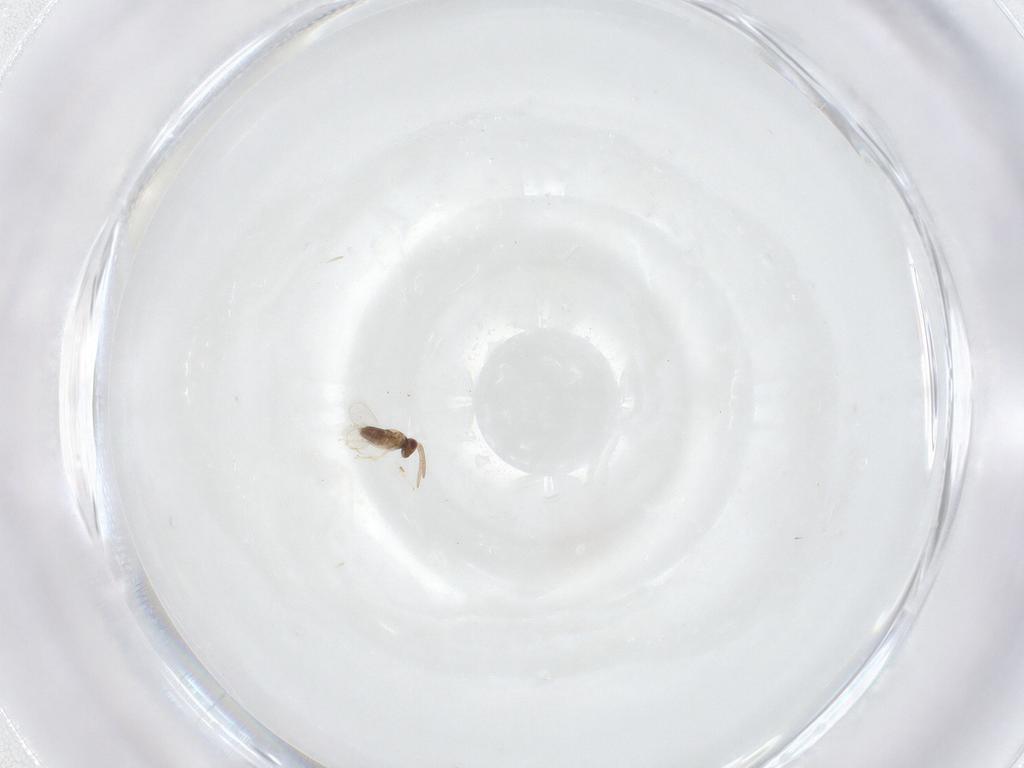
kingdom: Animalia
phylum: Arthropoda
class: Insecta
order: Hymenoptera
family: Aphelinidae
